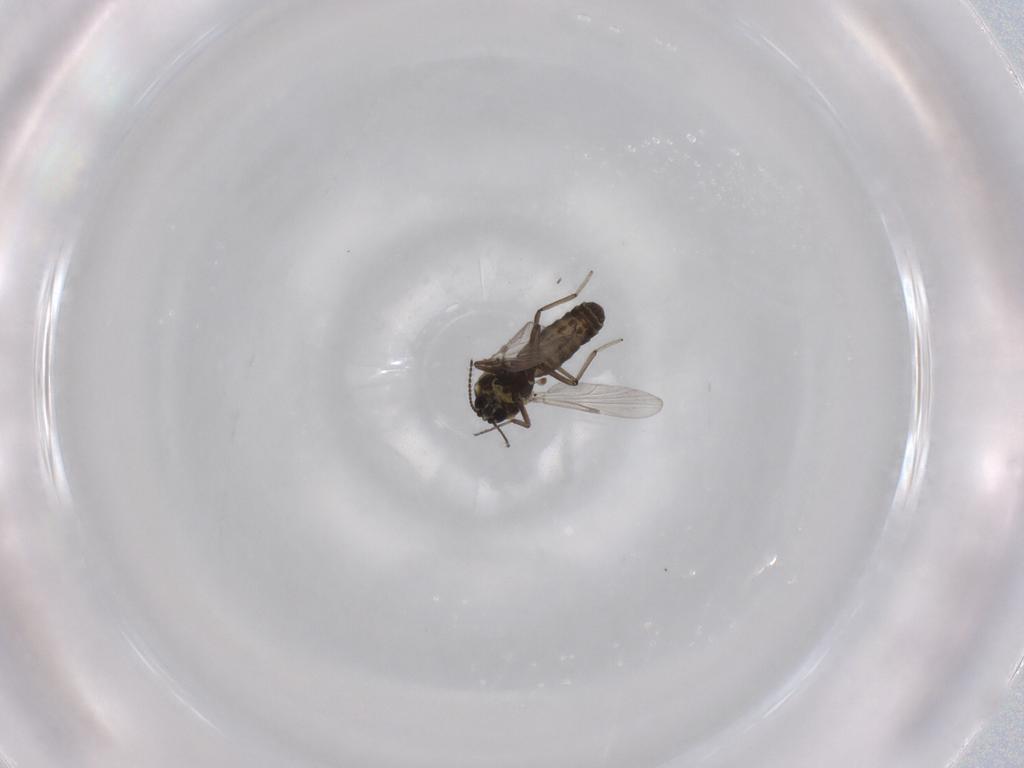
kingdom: Animalia
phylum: Arthropoda
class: Insecta
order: Diptera
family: Ceratopogonidae
